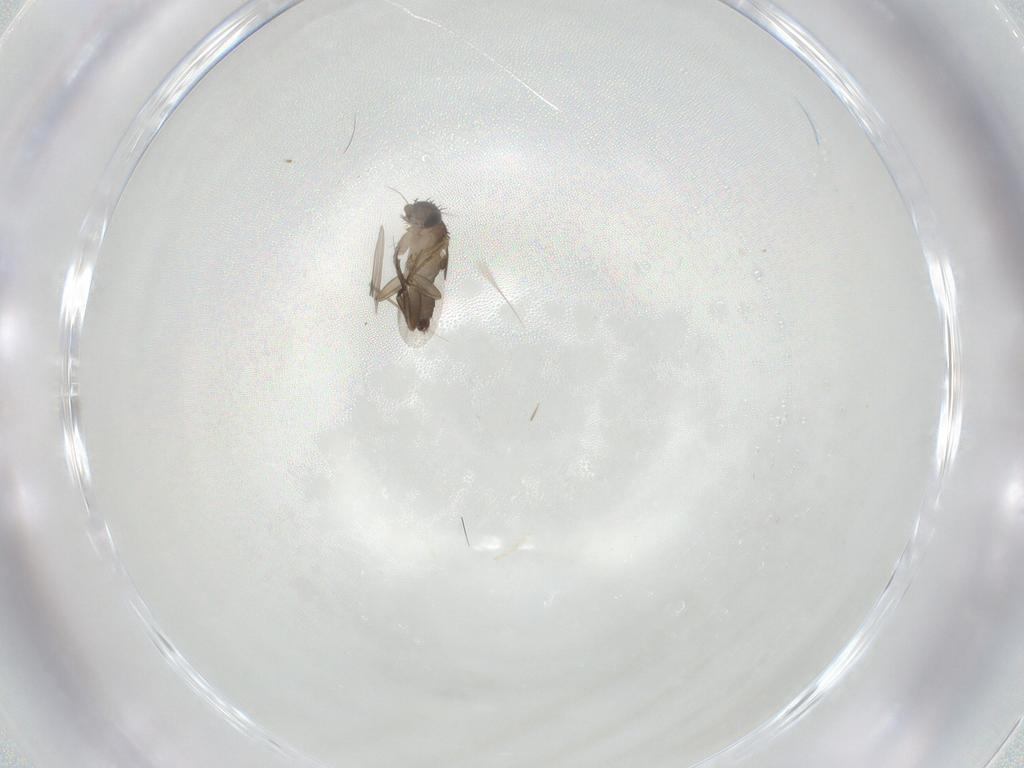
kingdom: Animalia
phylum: Arthropoda
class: Insecta
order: Diptera
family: Phoridae
